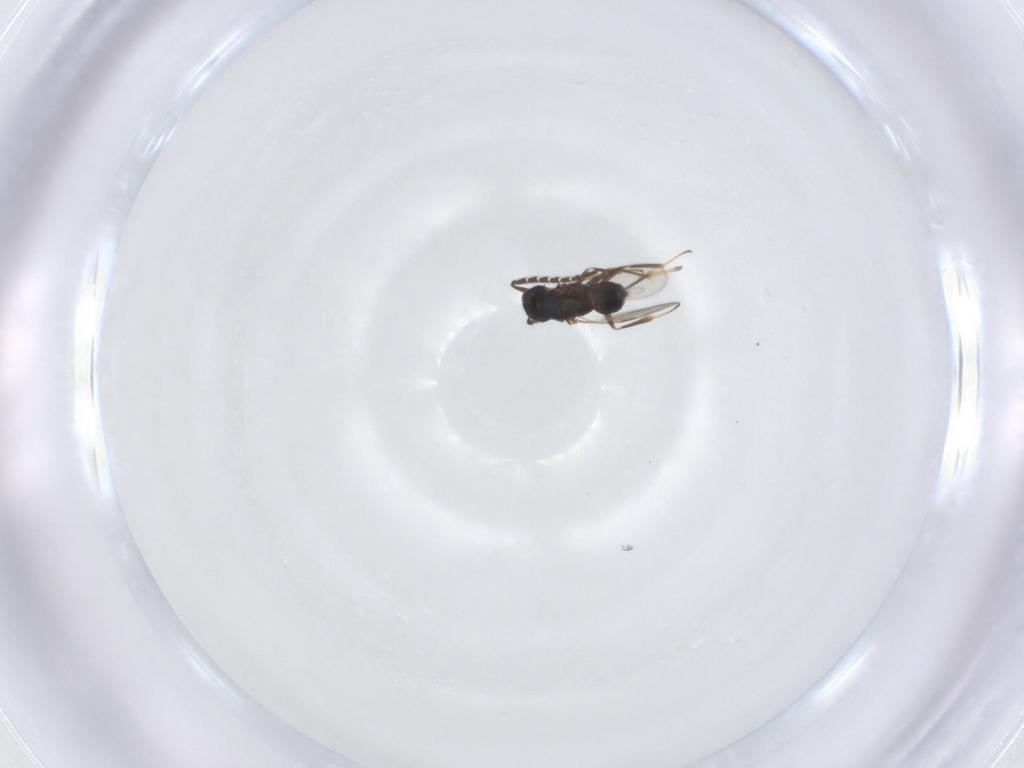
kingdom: Animalia
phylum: Arthropoda
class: Insecta
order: Hymenoptera
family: Encyrtidae
